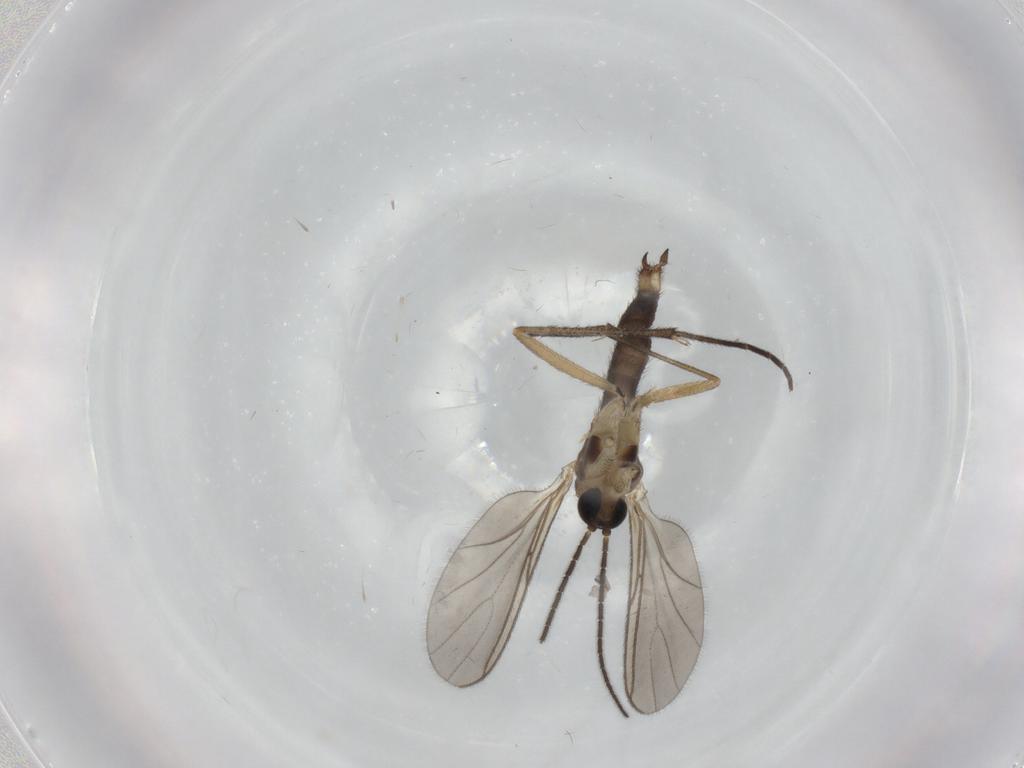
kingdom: Animalia
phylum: Arthropoda
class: Insecta
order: Diptera
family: Sciaridae
